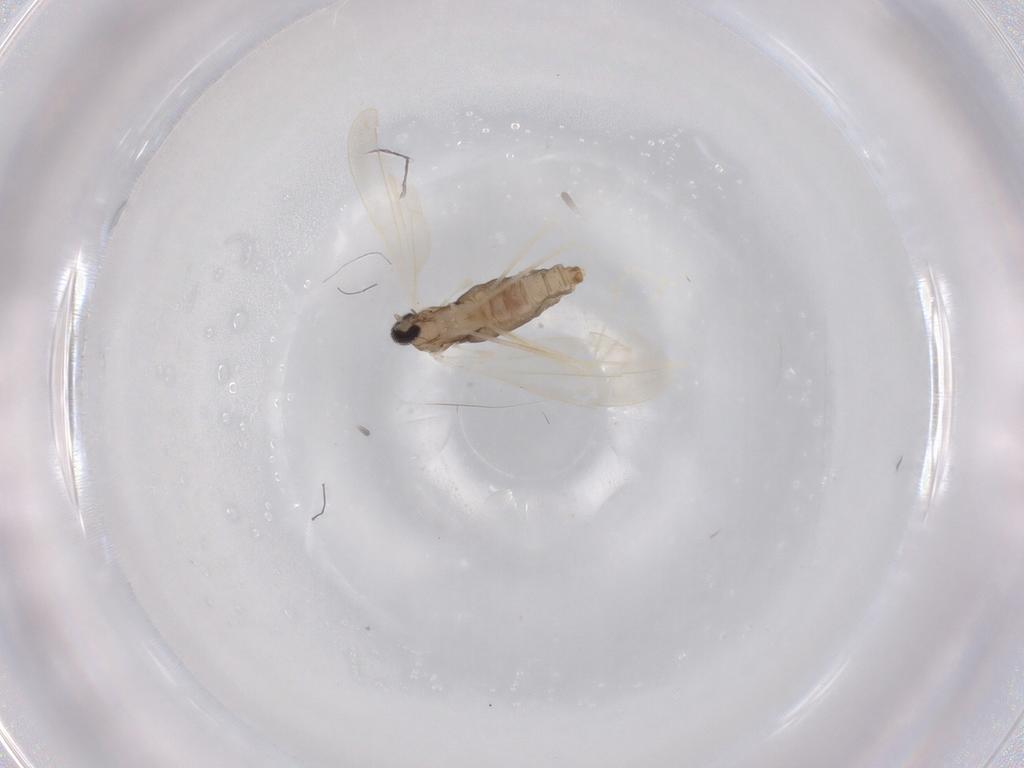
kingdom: Animalia
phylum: Arthropoda
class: Insecta
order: Diptera
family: Cecidomyiidae
